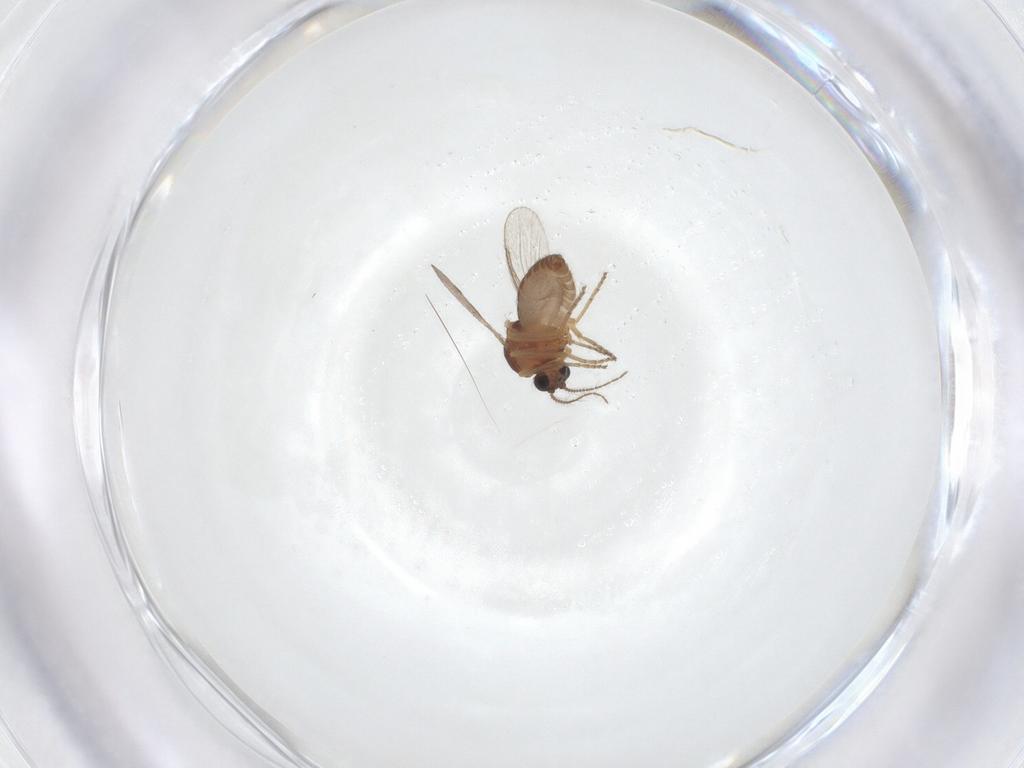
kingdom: Animalia
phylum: Arthropoda
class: Insecta
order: Diptera
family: Ceratopogonidae
